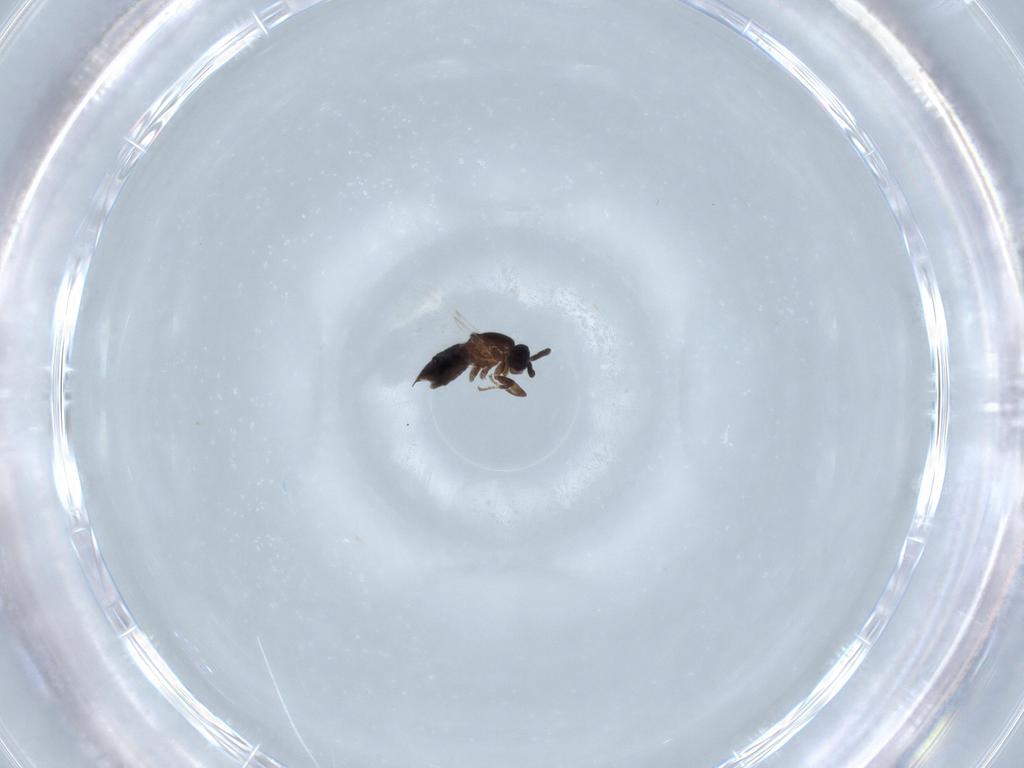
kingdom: Animalia
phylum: Arthropoda
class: Insecta
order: Diptera
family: Scatopsidae
